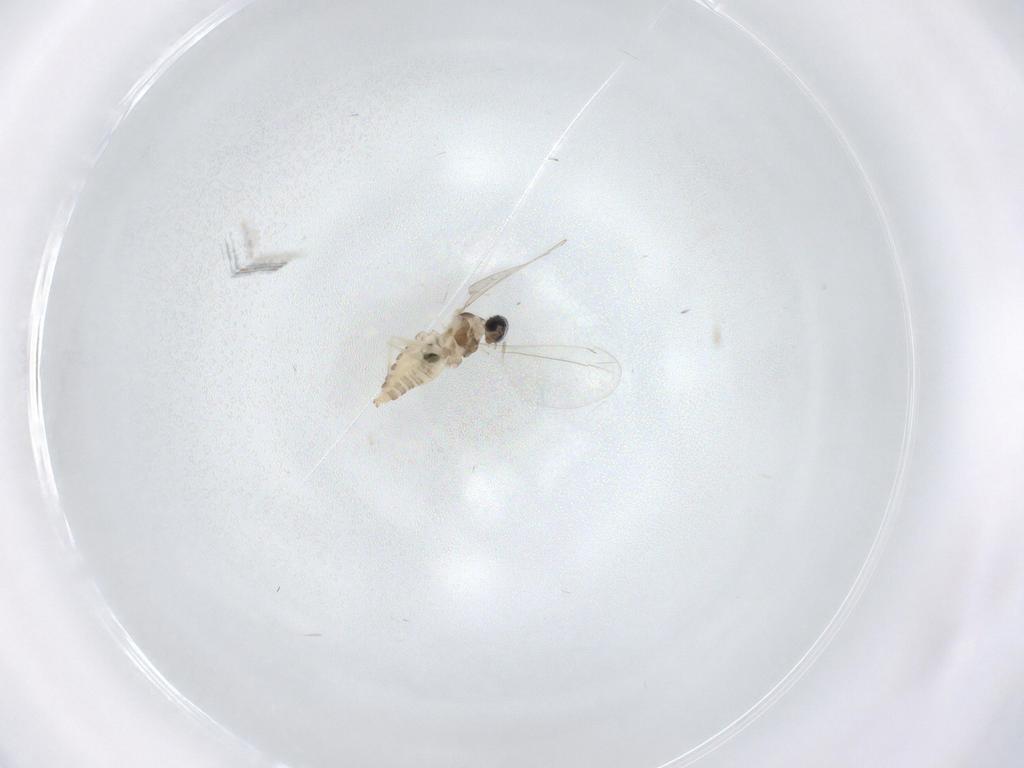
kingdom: Animalia
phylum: Arthropoda
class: Insecta
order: Diptera
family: Cecidomyiidae
